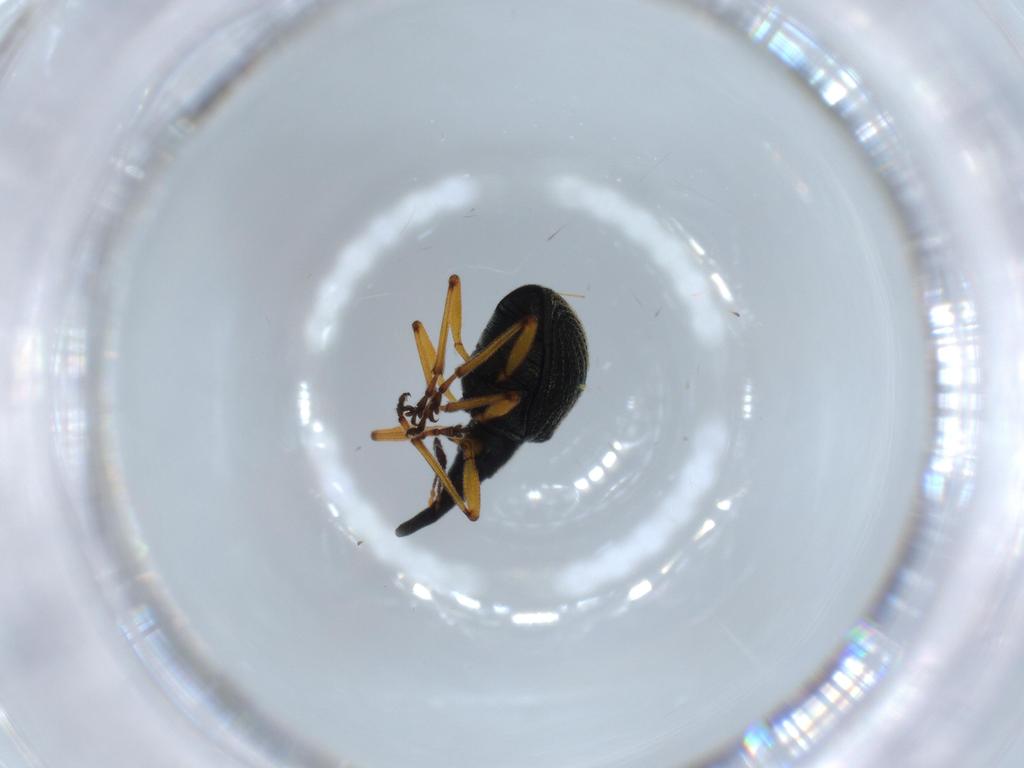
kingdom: Animalia
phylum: Arthropoda
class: Insecta
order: Coleoptera
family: Brentidae
